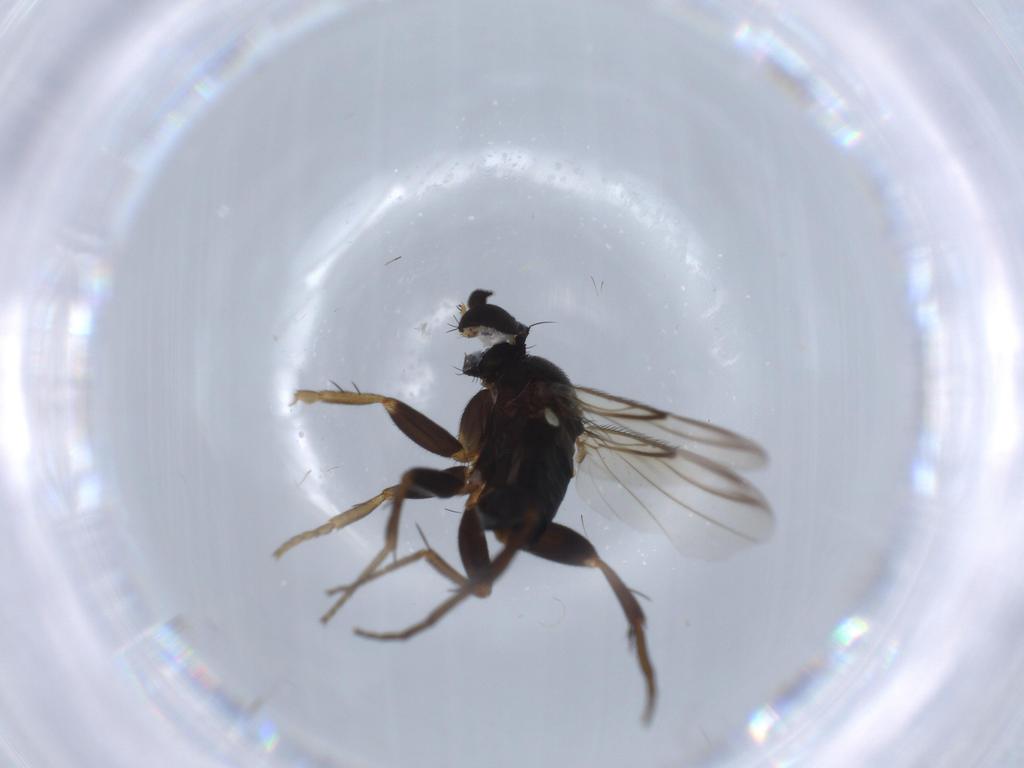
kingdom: Animalia
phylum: Arthropoda
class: Insecta
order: Diptera
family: Phoridae
